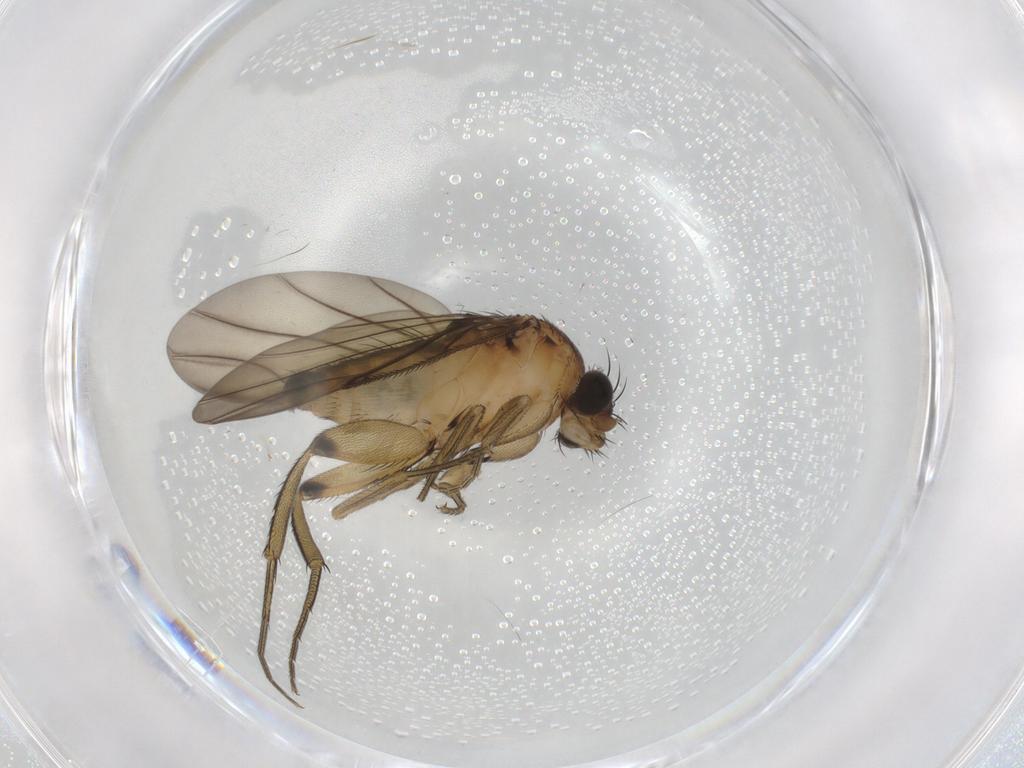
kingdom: Animalia
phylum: Arthropoda
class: Insecta
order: Diptera
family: Phoridae
